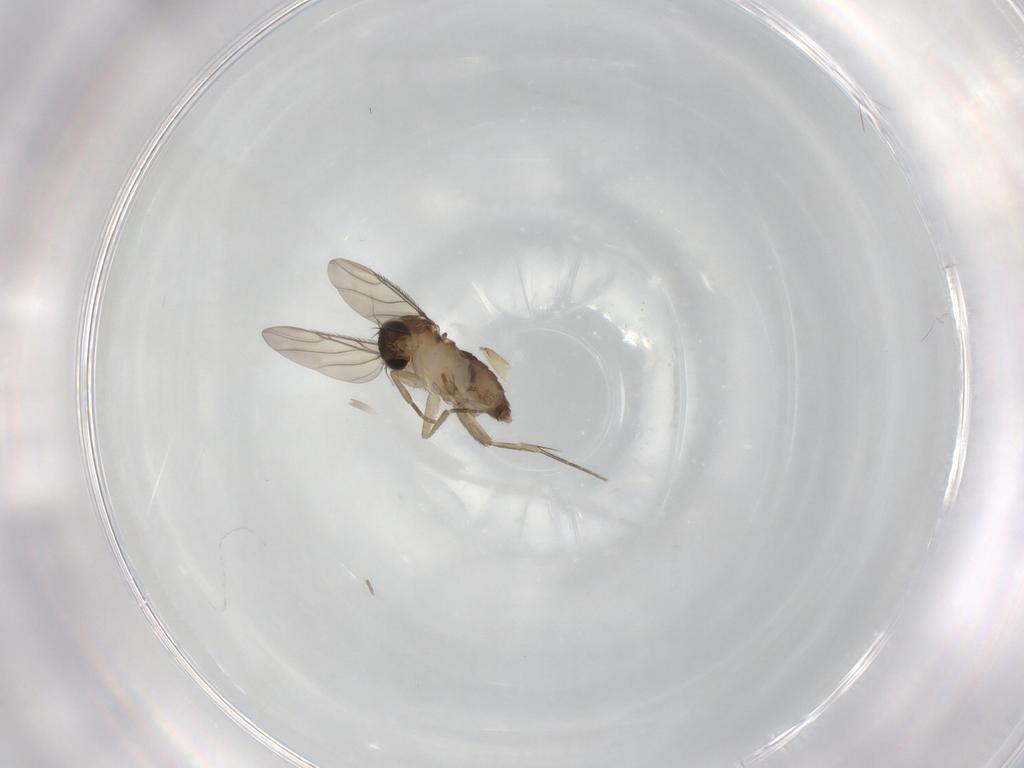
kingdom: Animalia
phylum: Arthropoda
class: Insecta
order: Diptera
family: Phoridae
